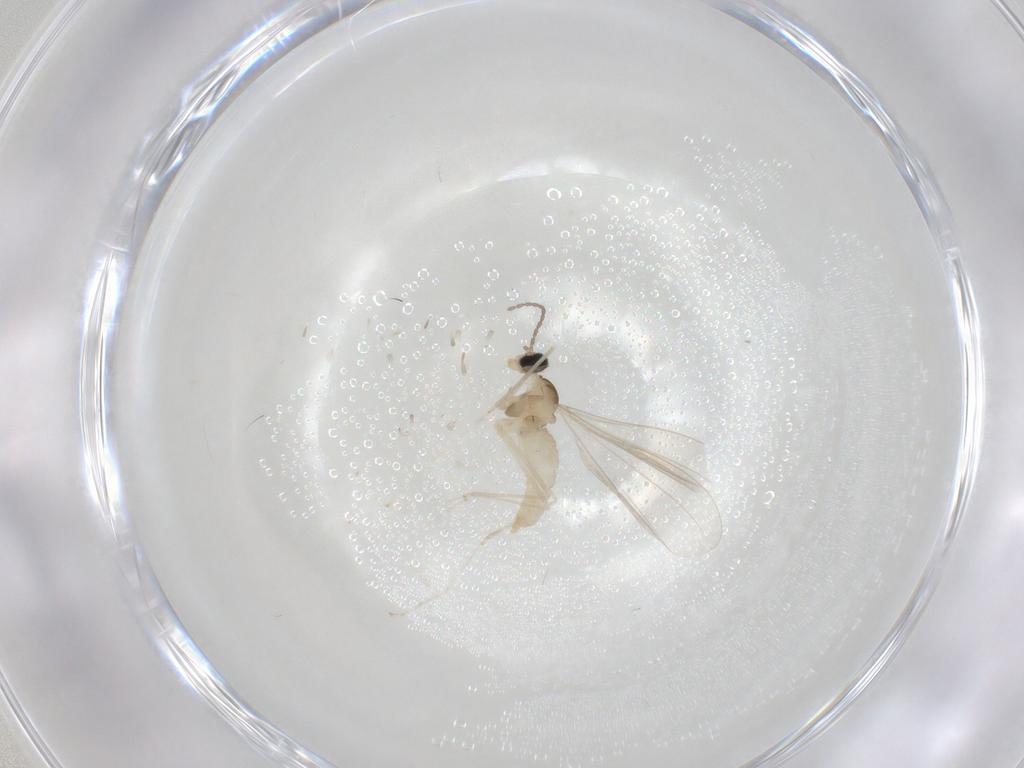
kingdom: Animalia
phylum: Arthropoda
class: Insecta
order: Diptera
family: Cecidomyiidae
